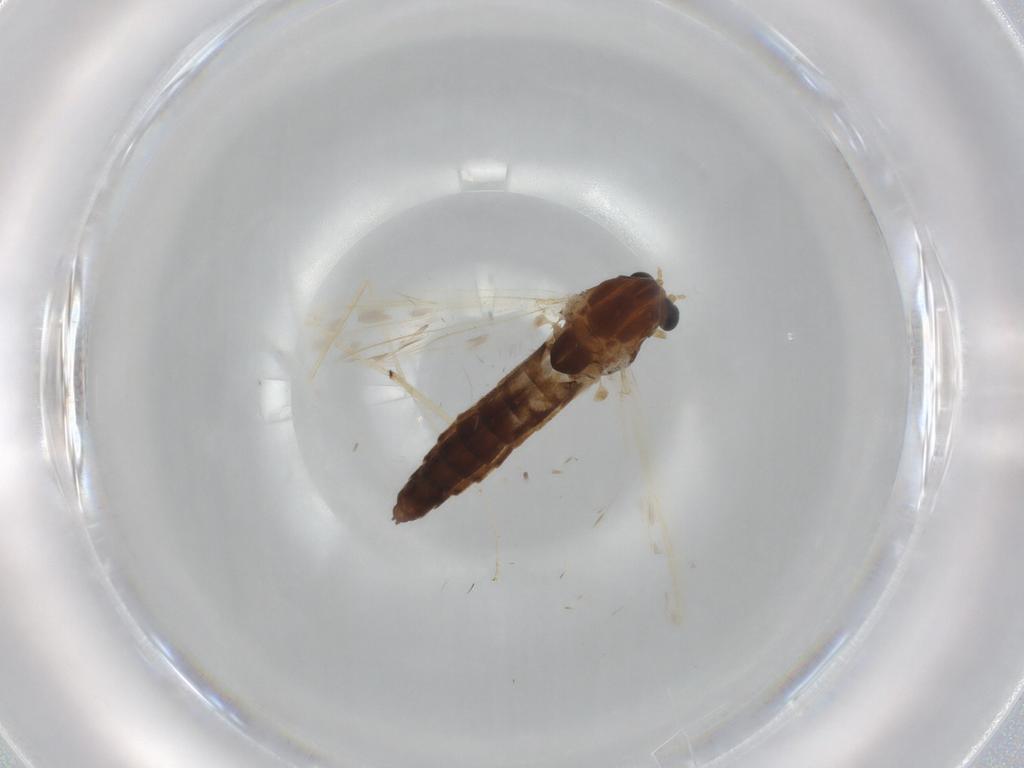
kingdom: Animalia
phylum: Arthropoda
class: Insecta
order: Diptera
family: Chironomidae
